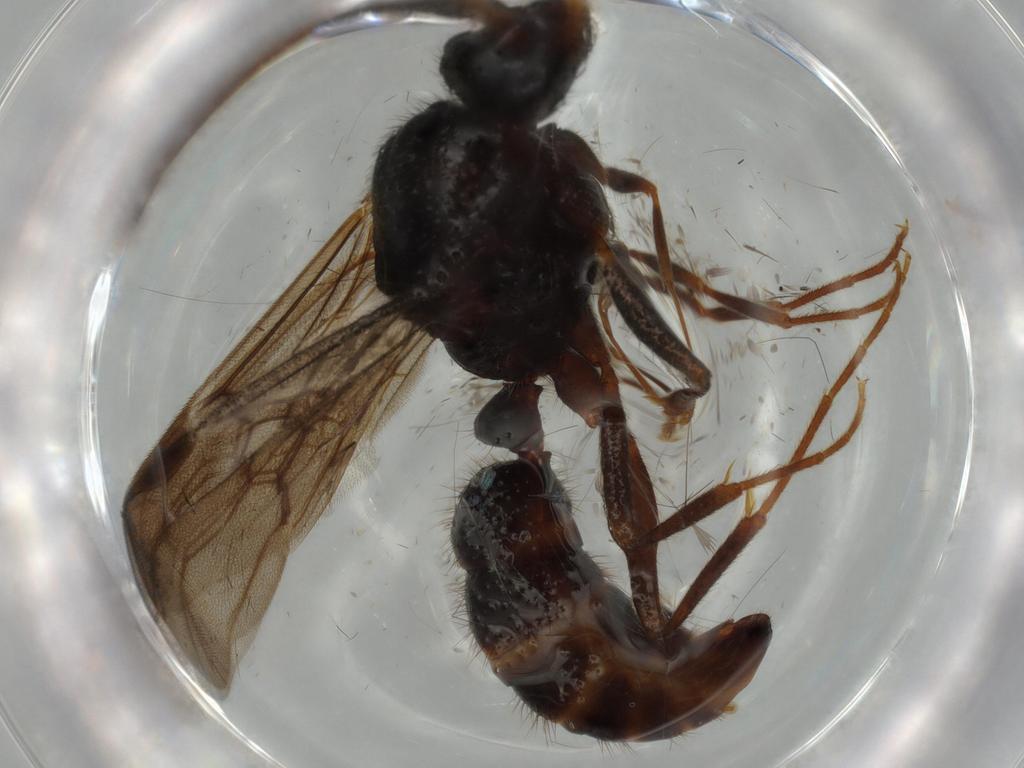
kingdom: Animalia
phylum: Arthropoda
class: Insecta
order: Hymenoptera
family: Formicidae
